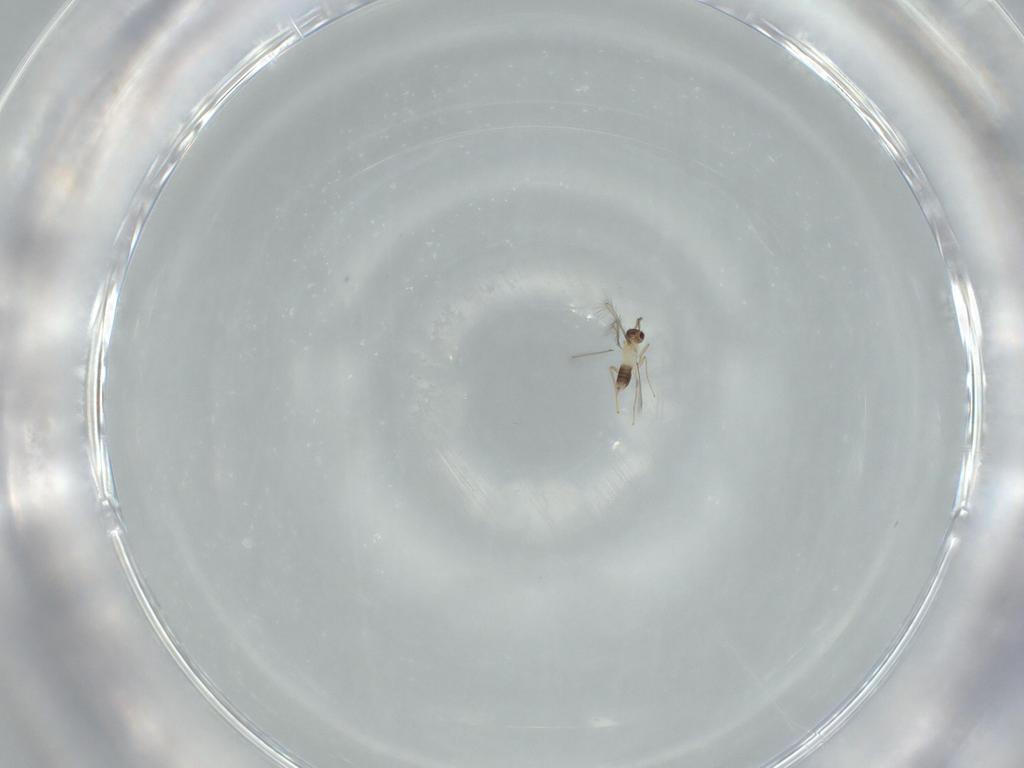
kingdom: Animalia
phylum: Arthropoda
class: Insecta
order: Hymenoptera
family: Mymaridae
